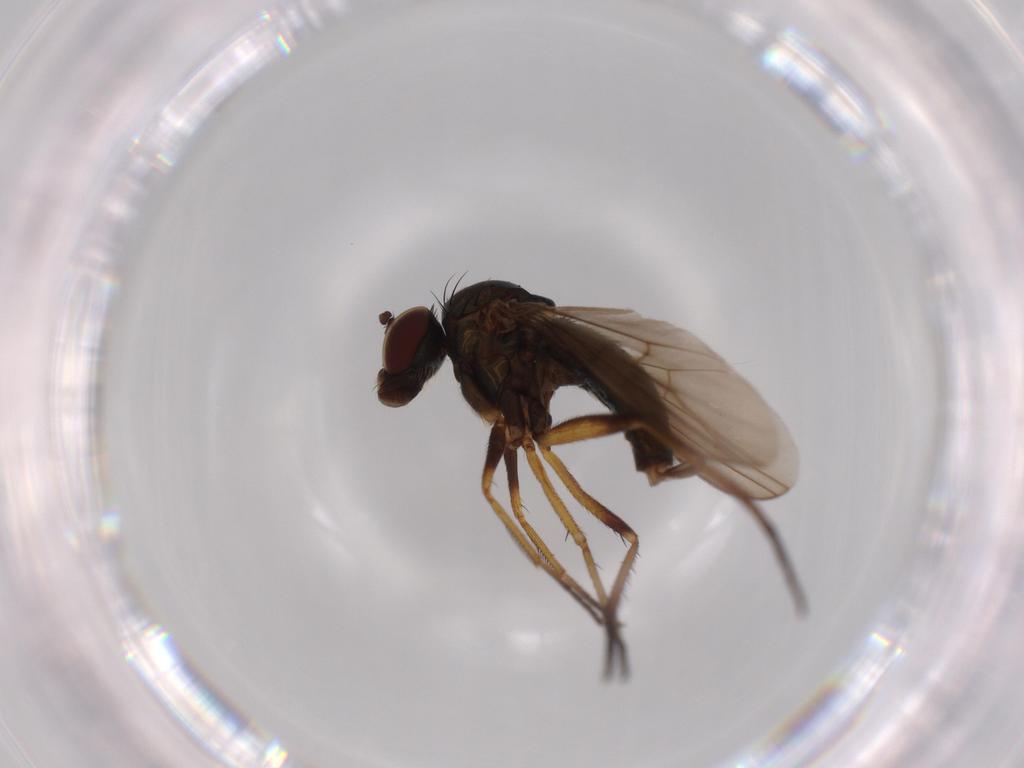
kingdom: Animalia
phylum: Arthropoda
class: Insecta
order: Diptera
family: Dolichopodidae
